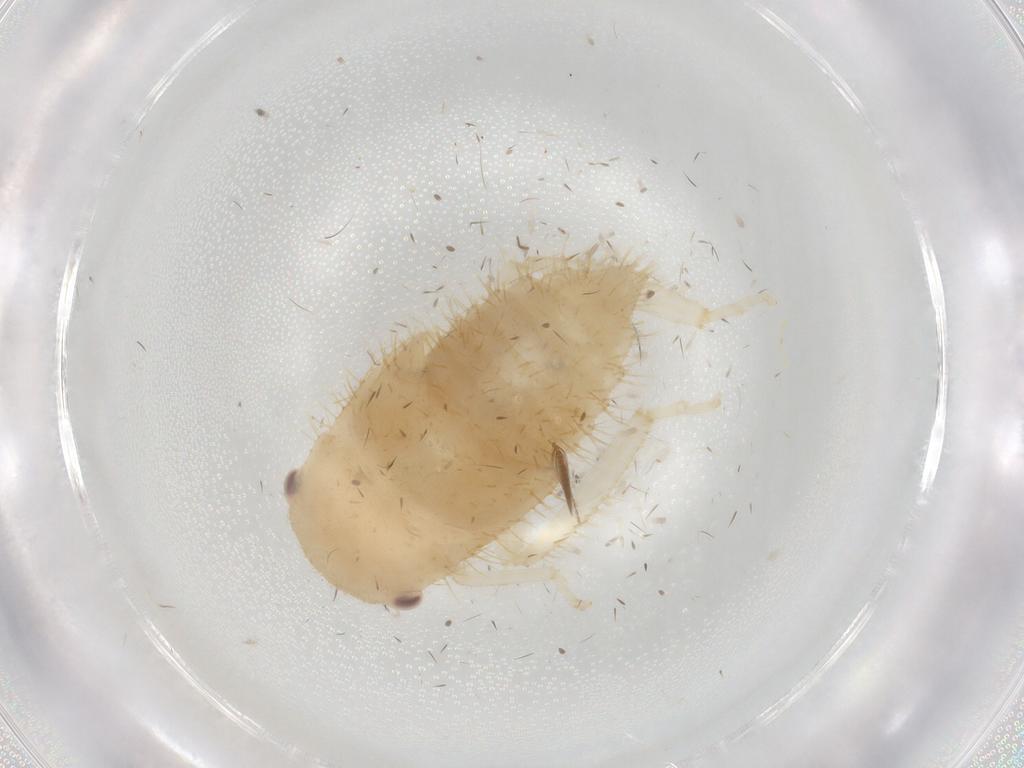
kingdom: Animalia
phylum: Arthropoda
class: Insecta
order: Hemiptera
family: Cicadellidae
